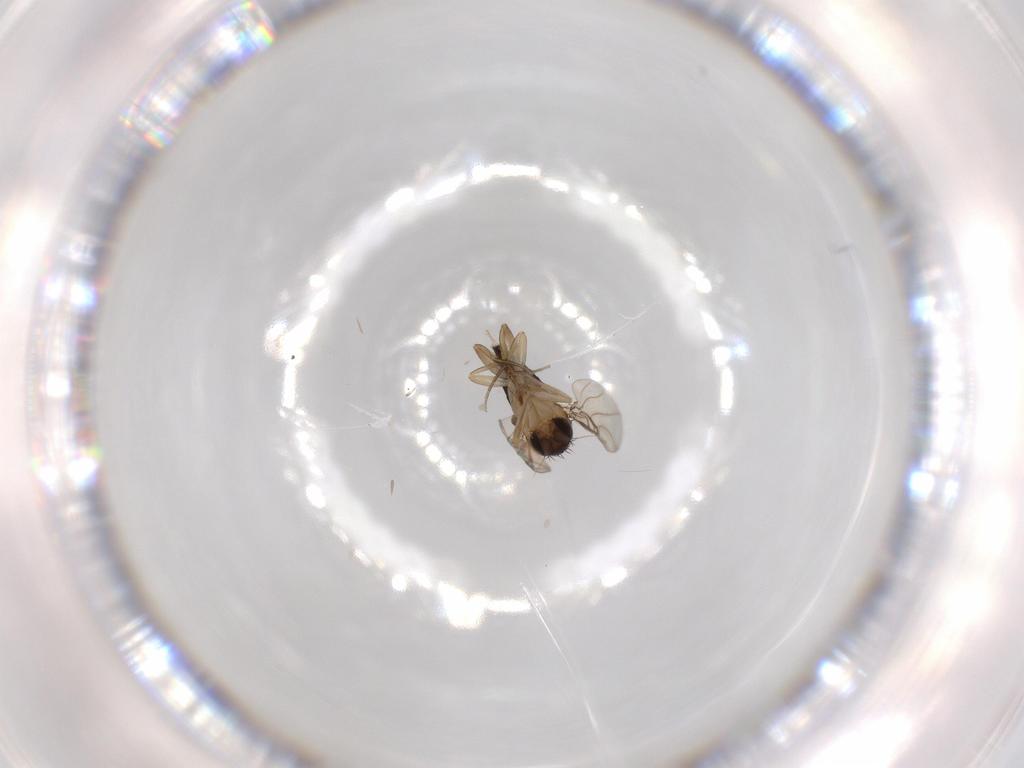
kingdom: Animalia
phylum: Arthropoda
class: Insecta
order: Diptera
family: Phoridae
